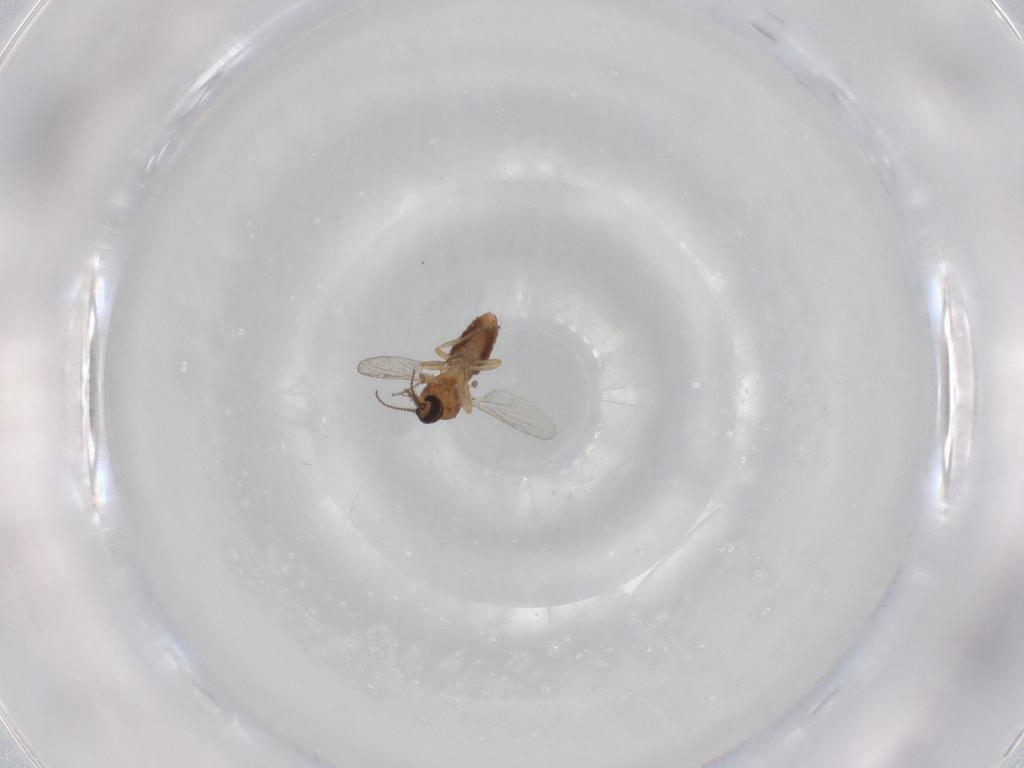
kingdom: Animalia
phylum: Arthropoda
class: Insecta
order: Diptera
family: Ceratopogonidae
